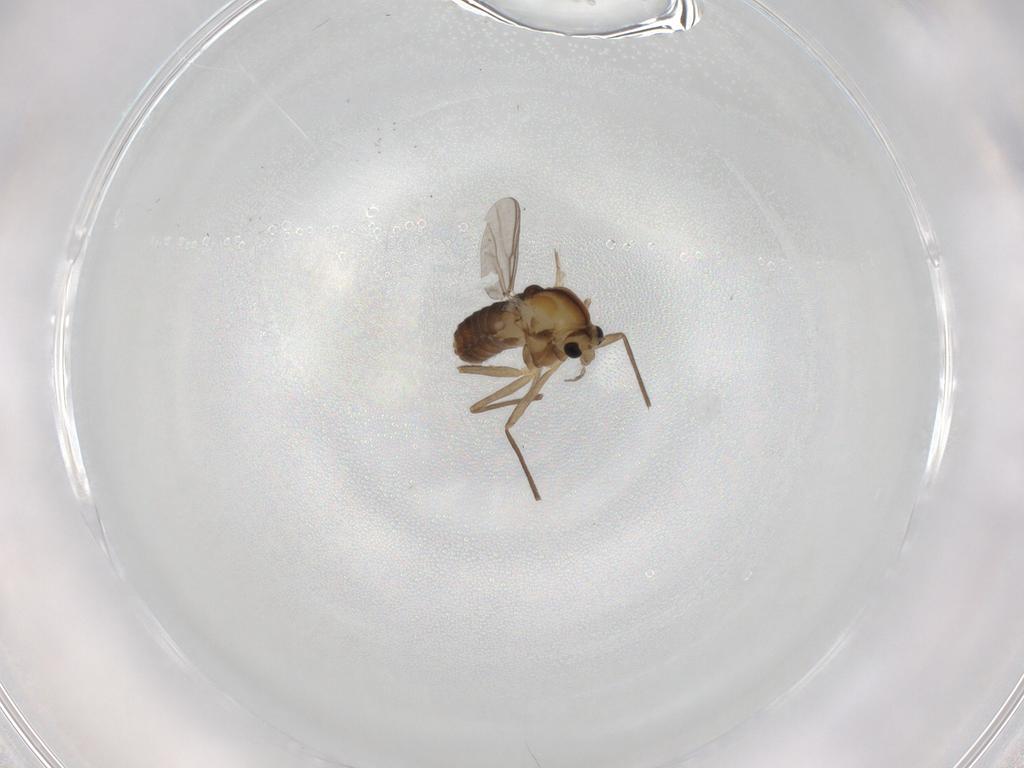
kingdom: Animalia
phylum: Arthropoda
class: Insecta
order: Diptera
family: Chironomidae
